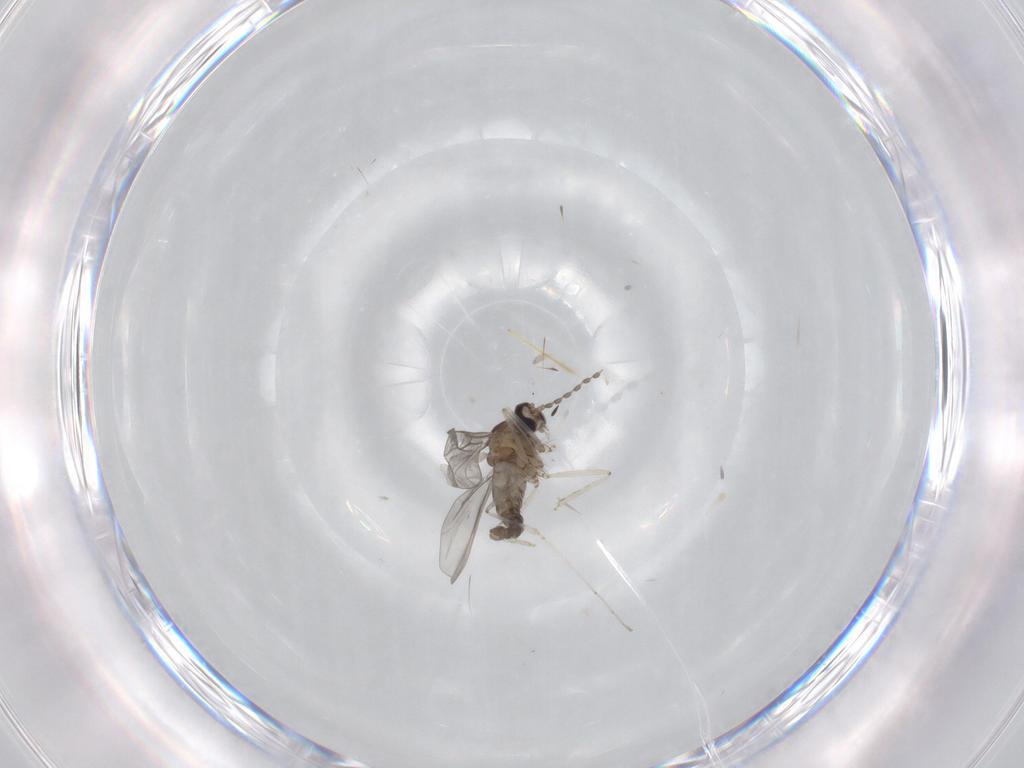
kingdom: Animalia
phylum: Arthropoda
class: Insecta
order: Diptera
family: Cecidomyiidae
